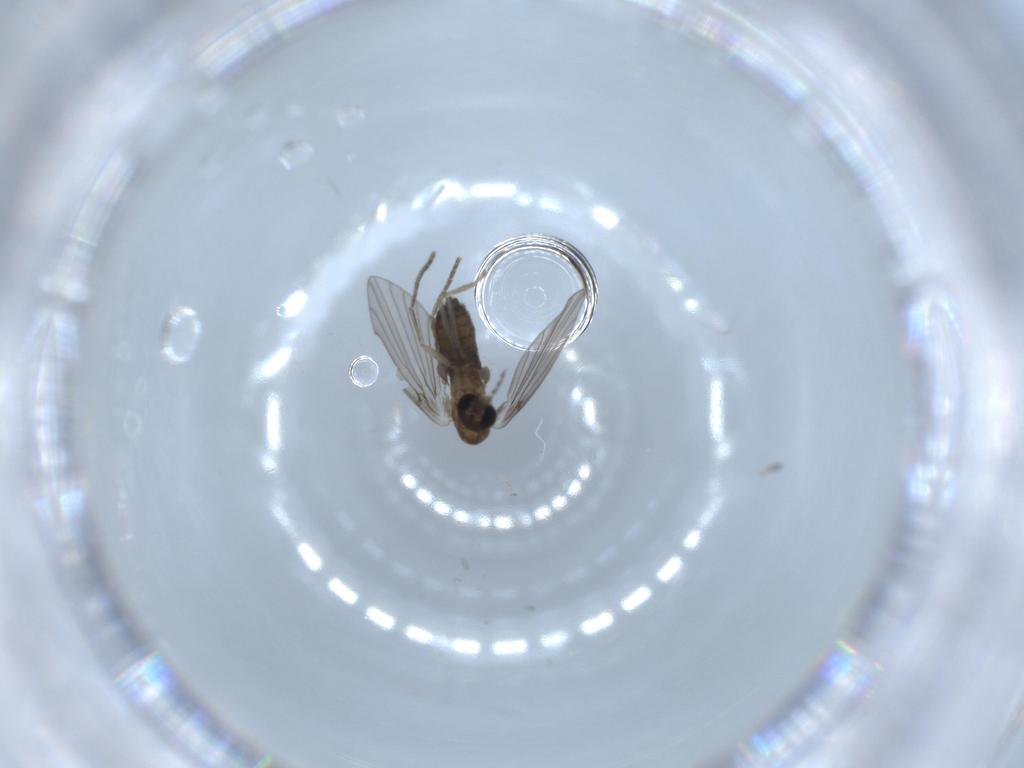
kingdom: Animalia
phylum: Arthropoda
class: Insecta
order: Diptera
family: Psychodidae
